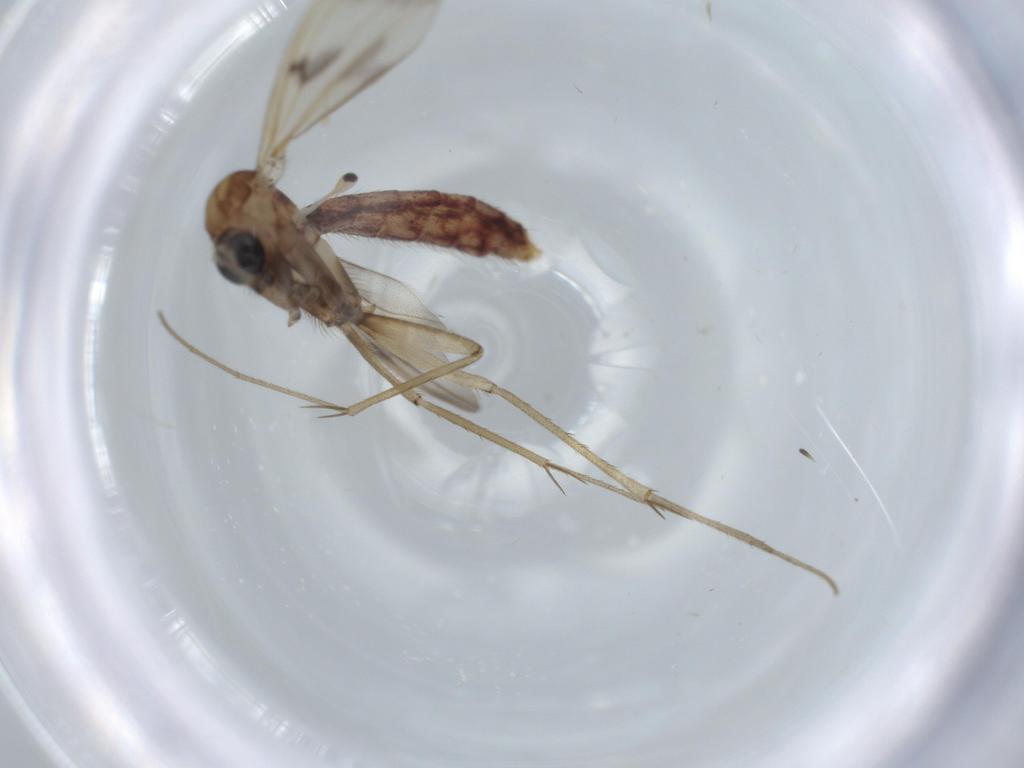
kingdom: Animalia
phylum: Arthropoda
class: Insecta
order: Diptera
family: Mycetophilidae
